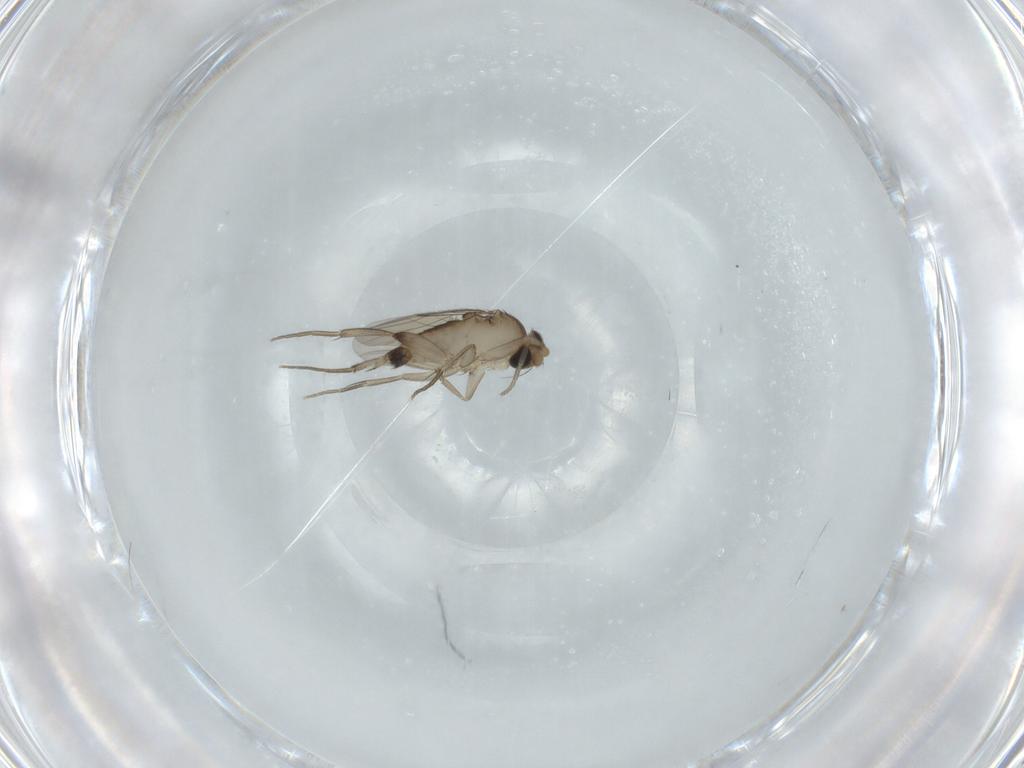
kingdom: Animalia
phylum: Arthropoda
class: Insecta
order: Diptera
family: Phoridae
